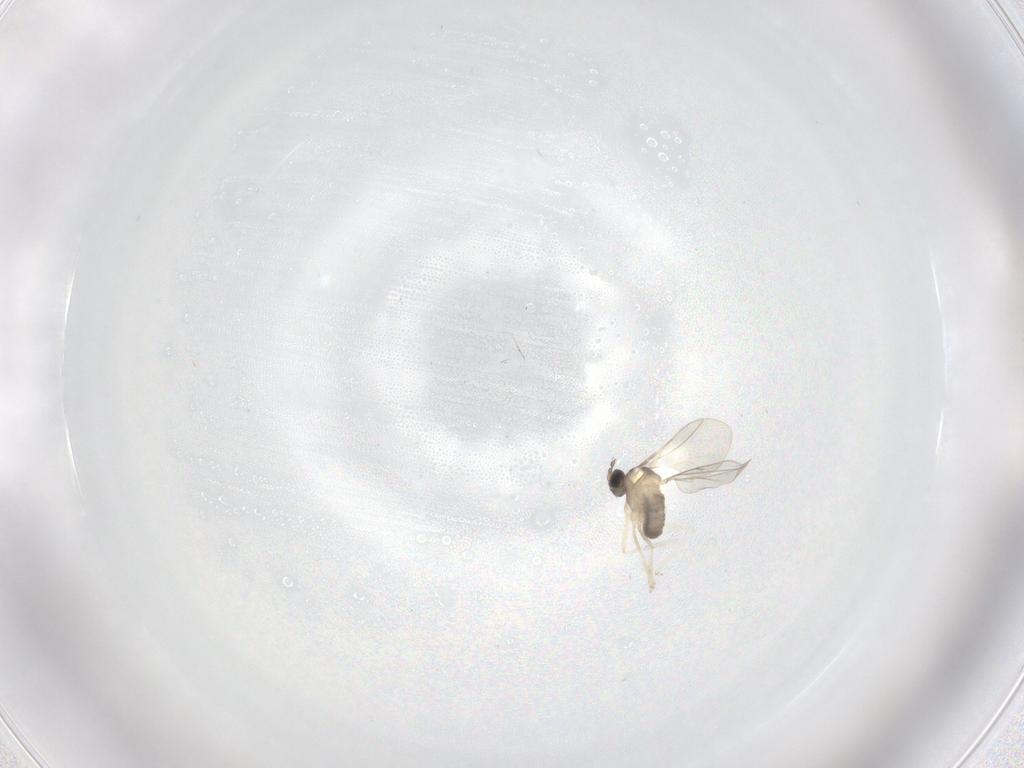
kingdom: Animalia
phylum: Arthropoda
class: Insecta
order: Diptera
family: Cecidomyiidae
